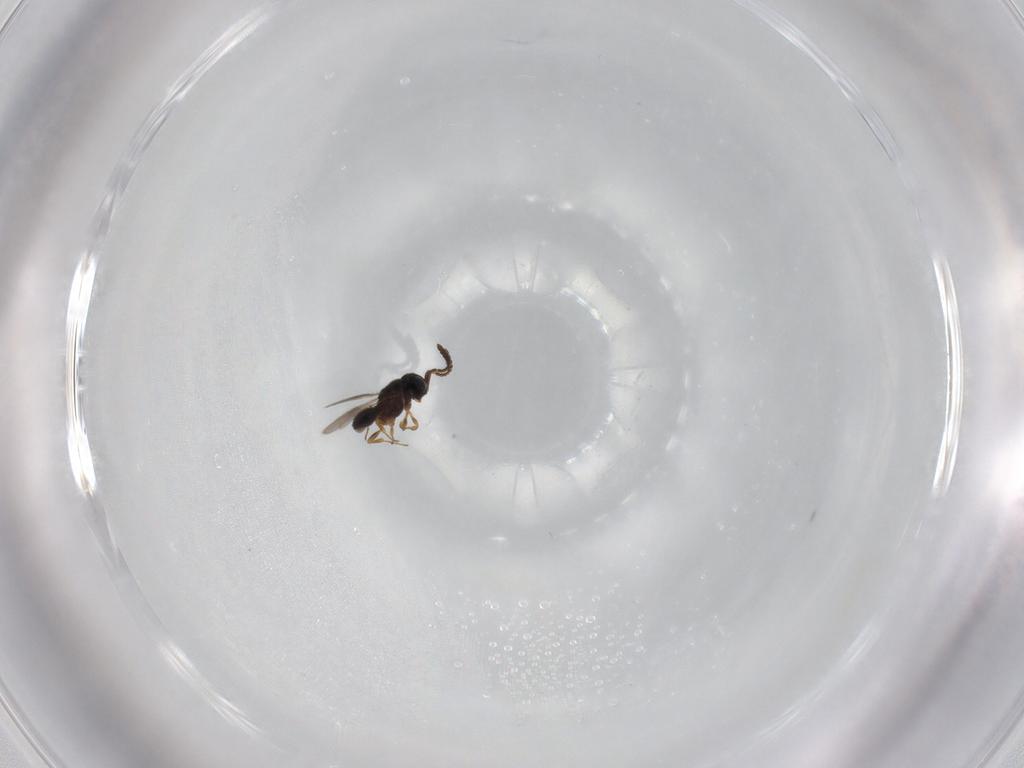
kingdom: Animalia
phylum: Arthropoda
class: Insecta
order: Hymenoptera
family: Scelionidae
